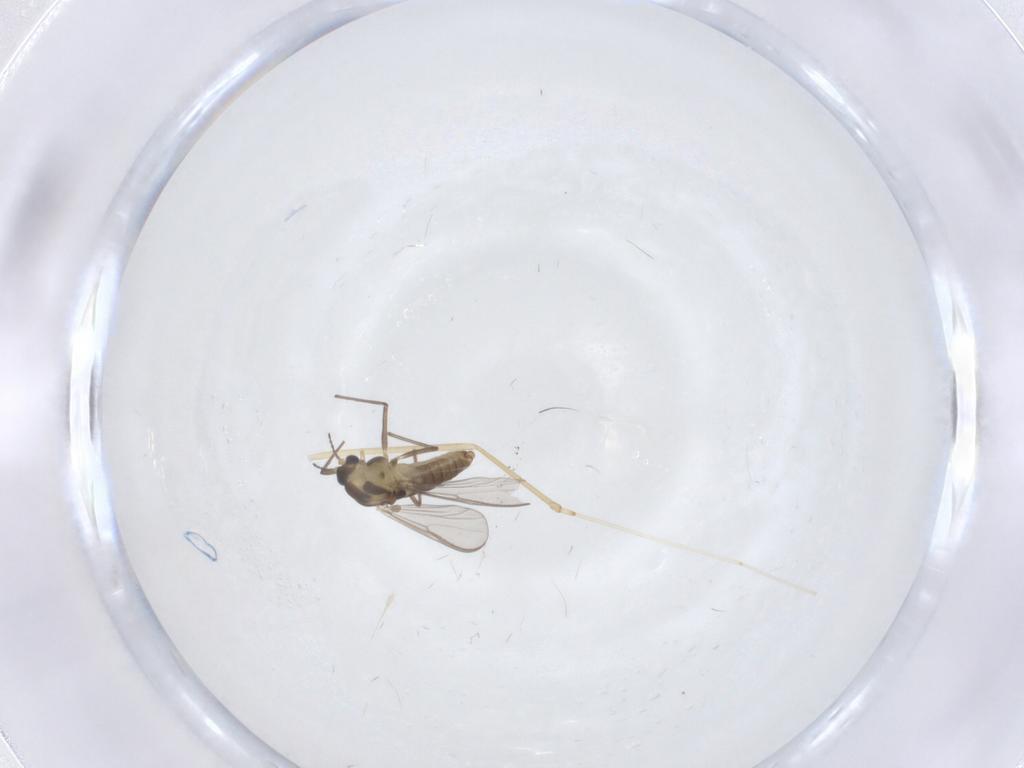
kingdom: Animalia
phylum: Arthropoda
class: Insecta
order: Diptera
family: Chironomidae
